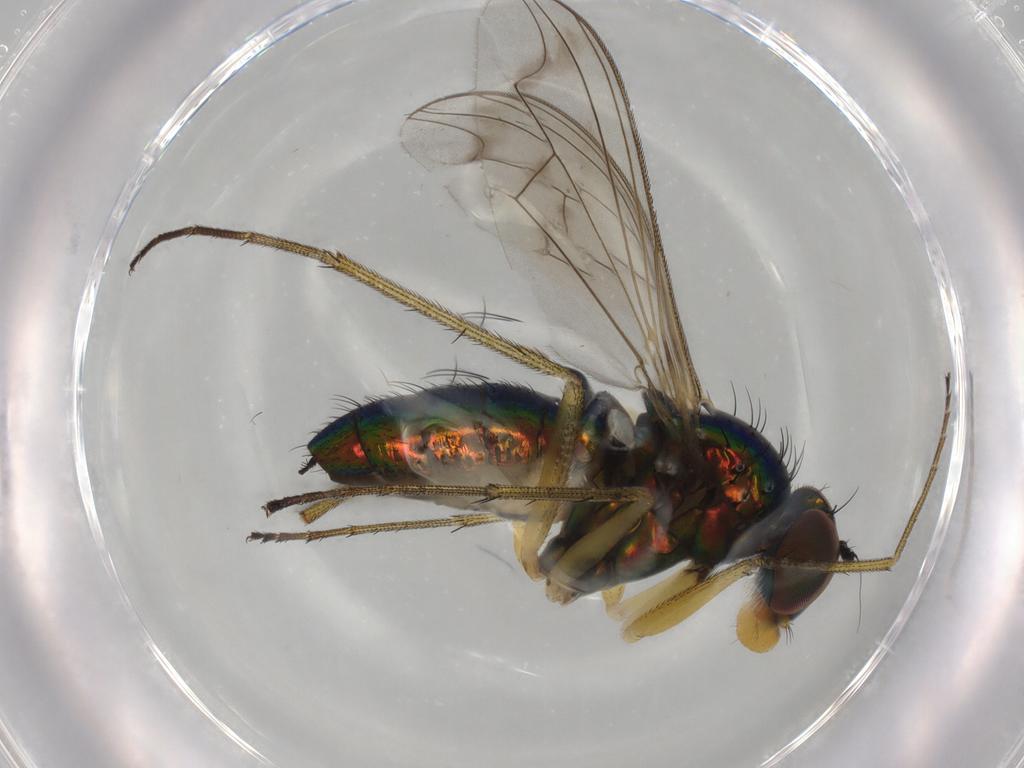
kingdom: Animalia
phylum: Arthropoda
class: Insecta
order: Diptera
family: Dolichopodidae
